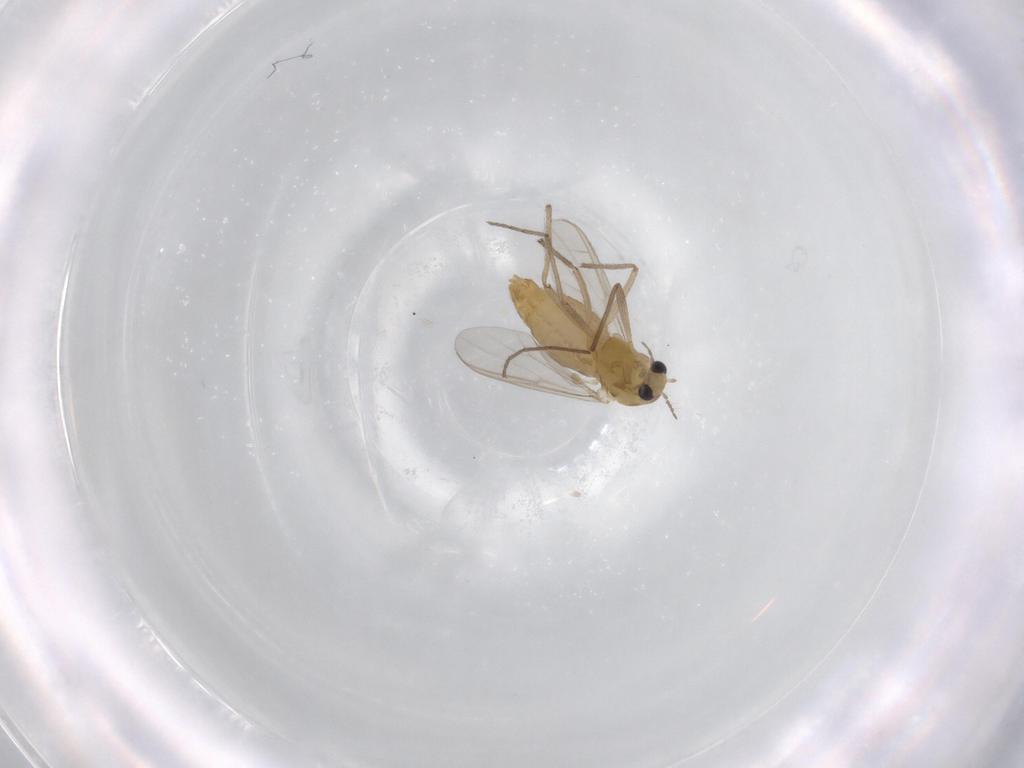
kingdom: Animalia
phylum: Arthropoda
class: Insecta
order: Diptera
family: Chironomidae
